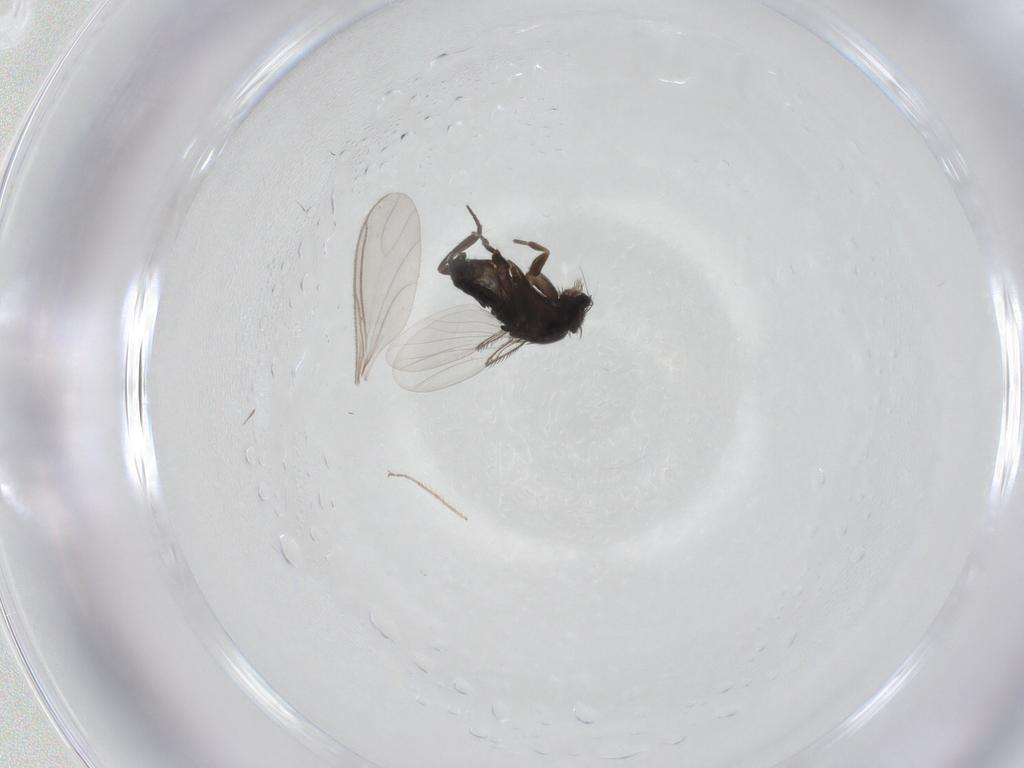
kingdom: Animalia
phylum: Arthropoda
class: Insecta
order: Diptera
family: Phoridae
